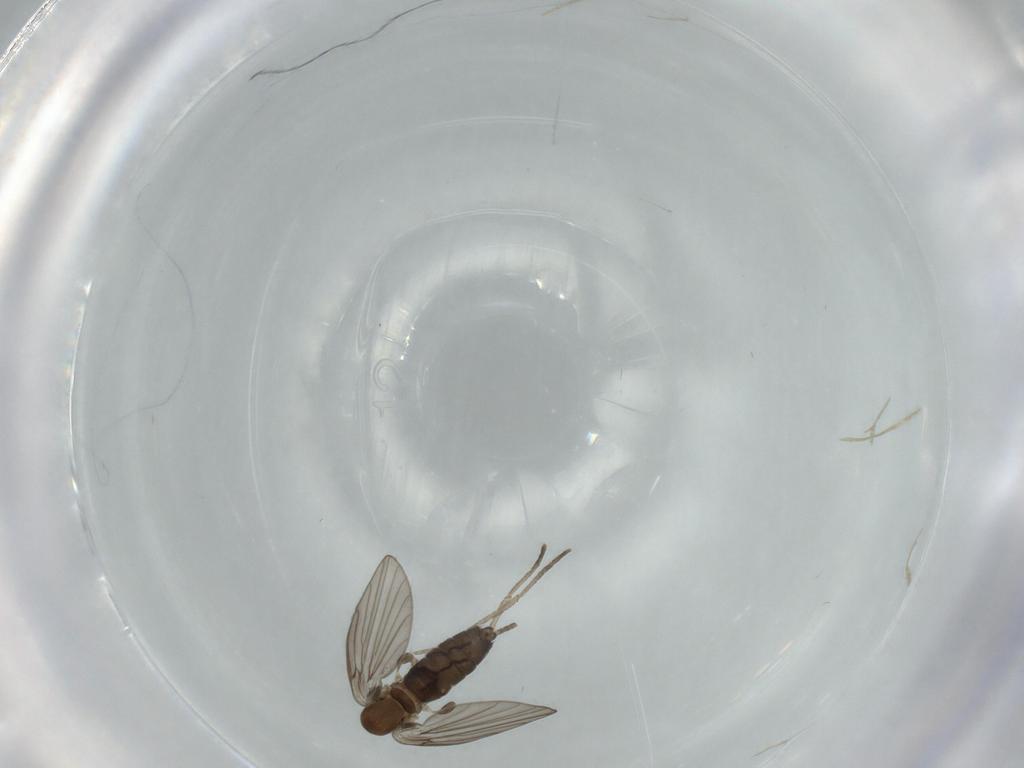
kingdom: Animalia
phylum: Arthropoda
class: Insecta
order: Diptera
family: Psychodidae
